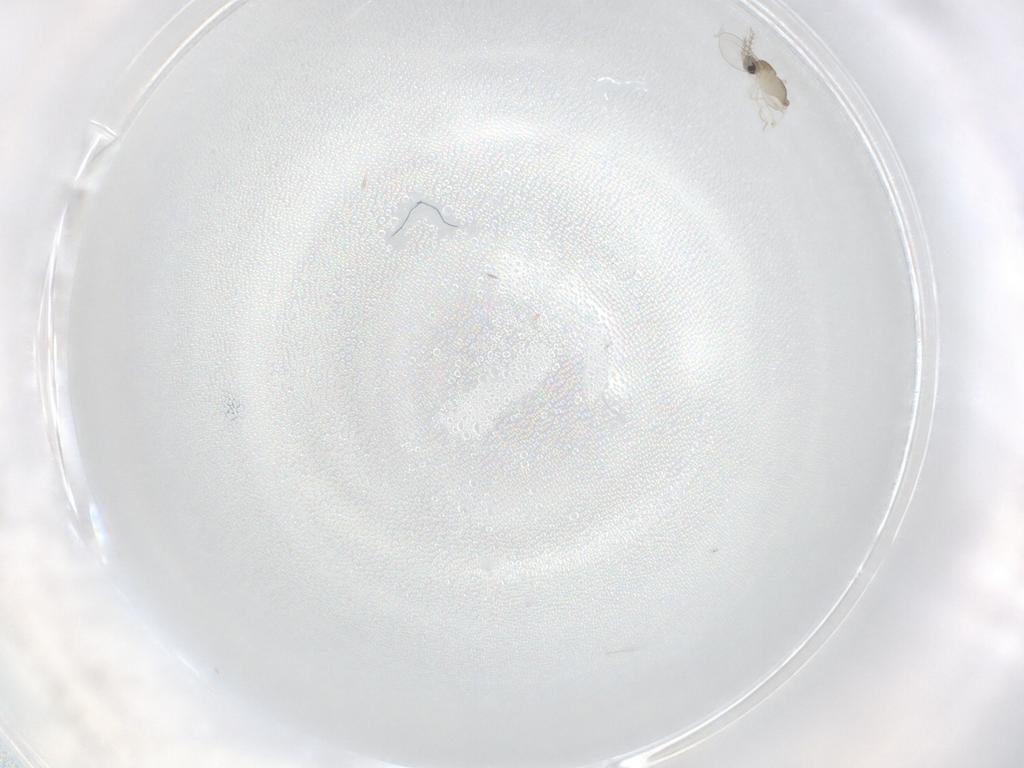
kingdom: Animalia
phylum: Arthropoda
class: Insecta
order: Diptera
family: Cecidomyiidae
